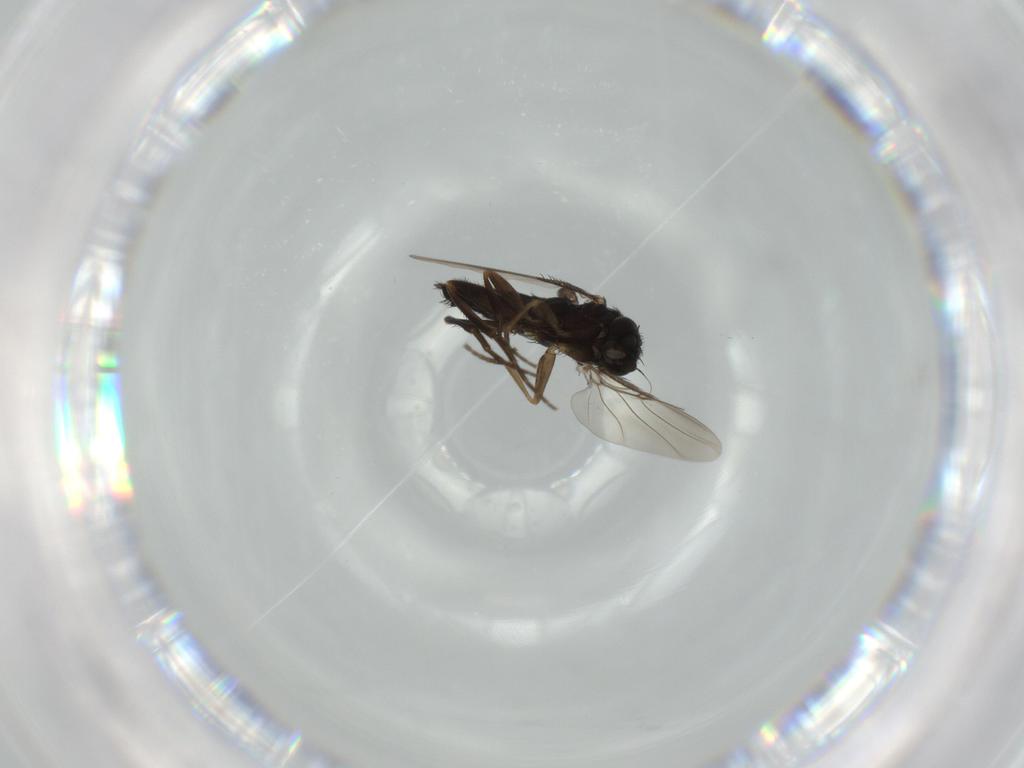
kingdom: Animalia
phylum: Arthropoda
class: Insecta
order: Diptera
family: Phoridae
